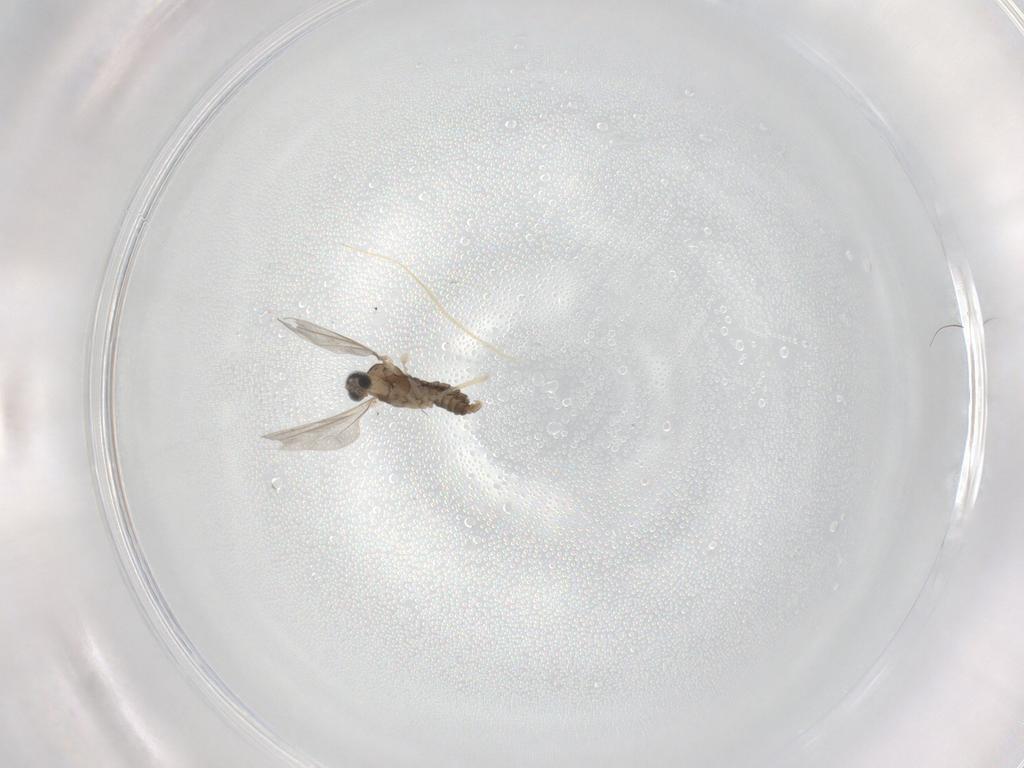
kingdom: Animalia
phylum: Arthropoda
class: Insecta
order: Diptera
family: Cecidomyiidae
